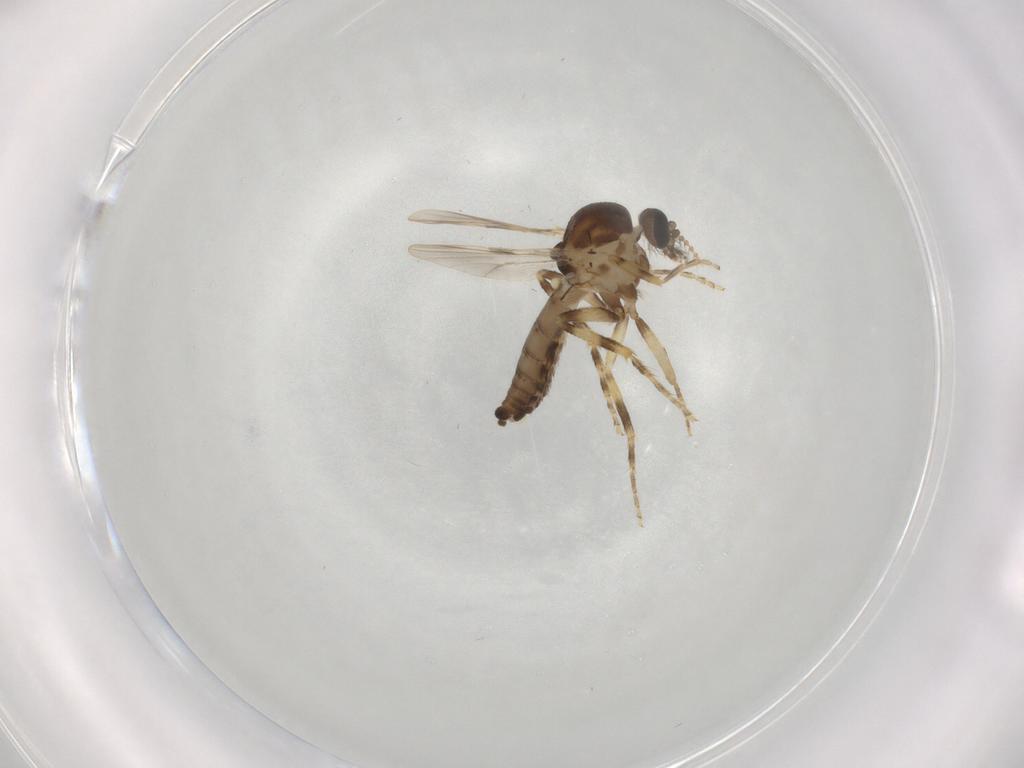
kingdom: Animalia
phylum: Arthropoda
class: Insecta
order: Diptera
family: Ceratopogonidae
